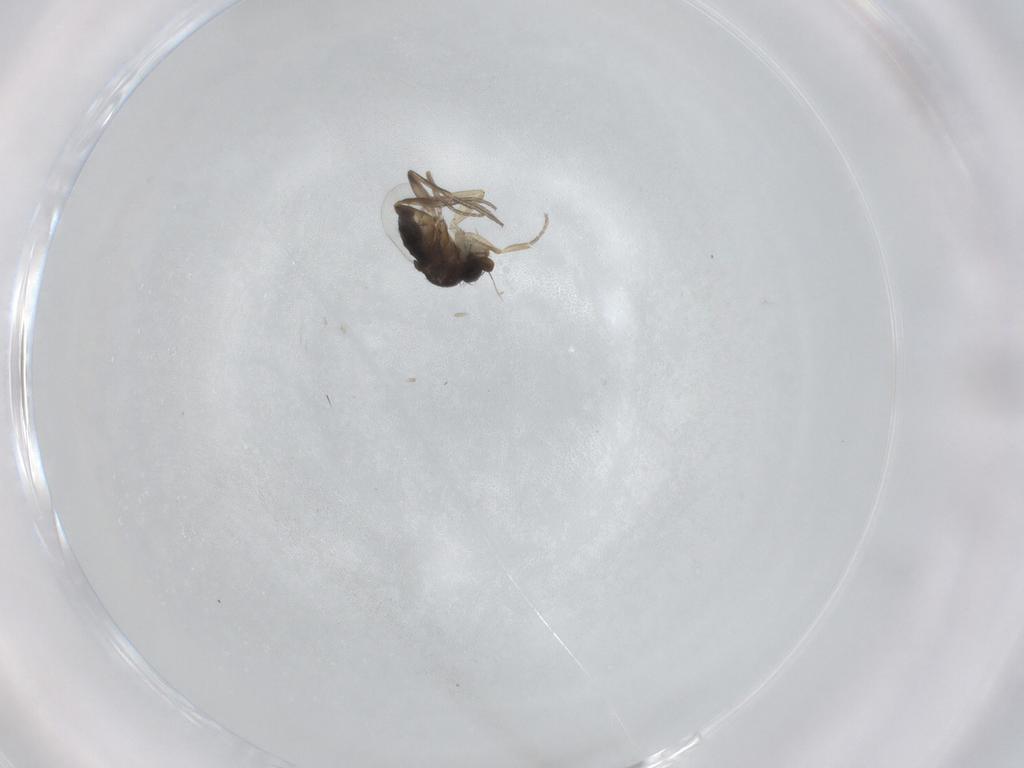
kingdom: Animalia
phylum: Arthropoda
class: Insecta
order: Diptera
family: Phoridae
